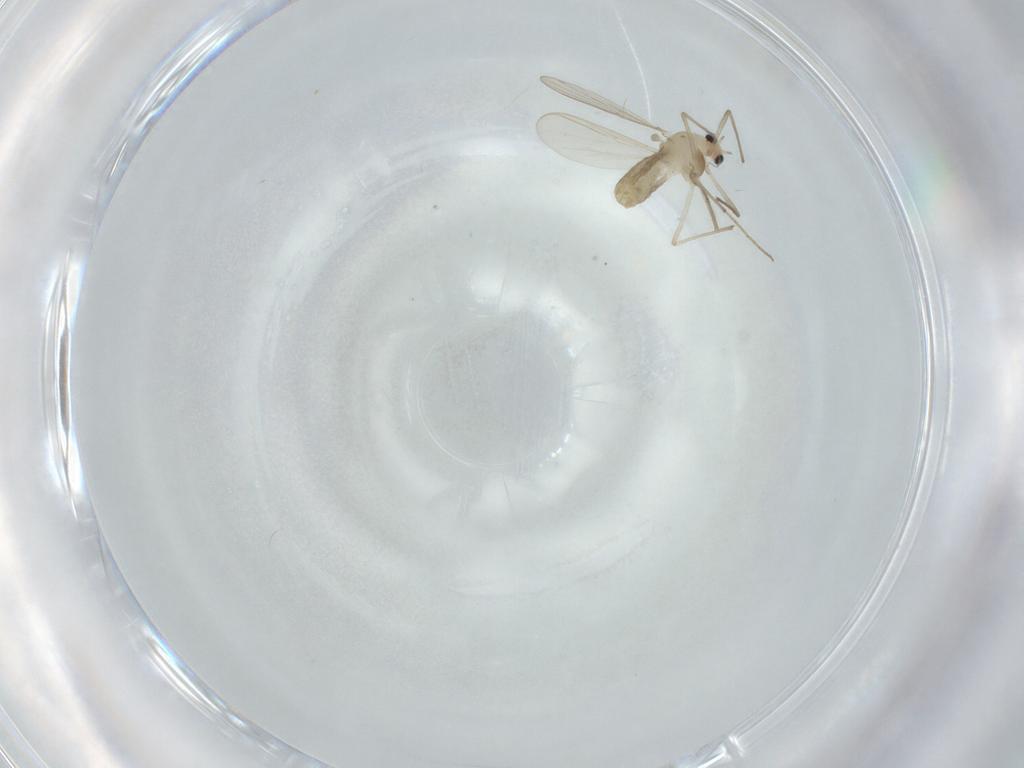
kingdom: Animalia
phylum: Arthropoda
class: Insecta
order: Diptera
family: Chironomidae
